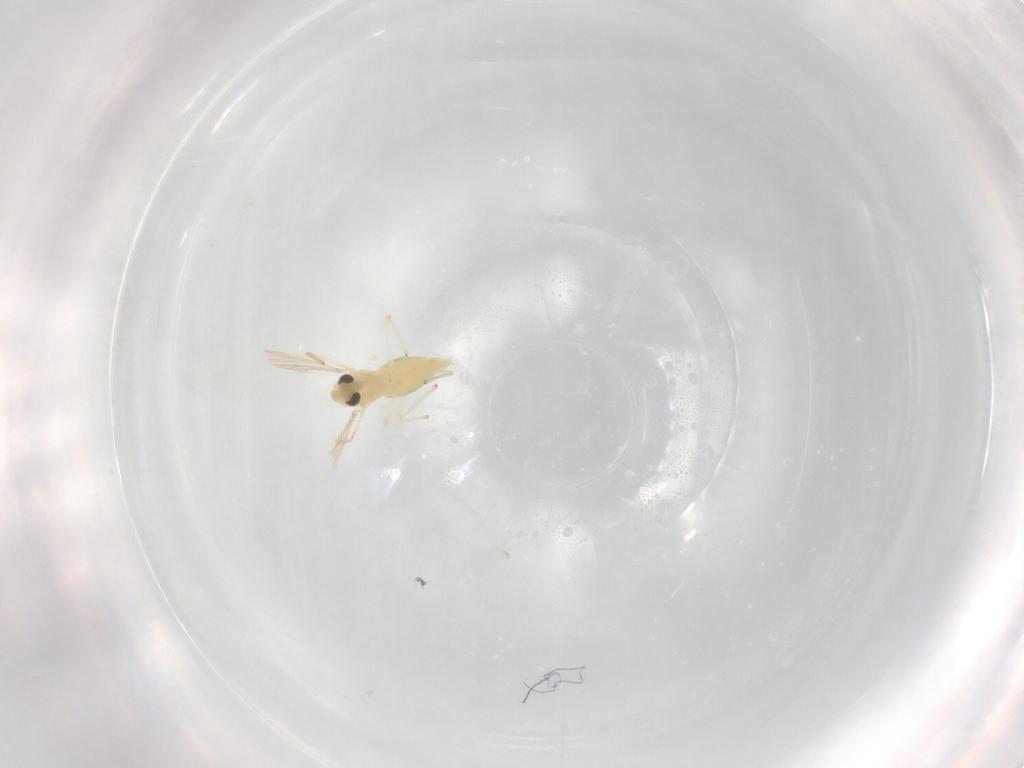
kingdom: Animalia
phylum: Arthropoda
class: Insecta
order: Diptera
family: Chironomidae
